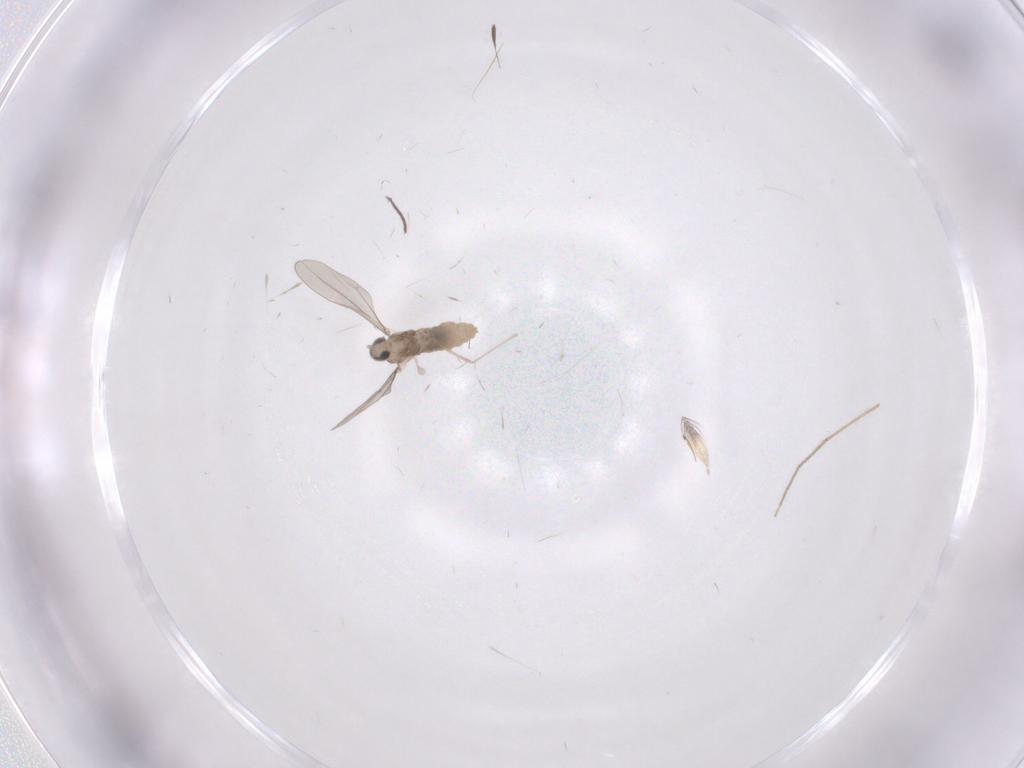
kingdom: Animalia
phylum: Arthropoda
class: Insecta
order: Diptera
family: Cecidomyiidae
